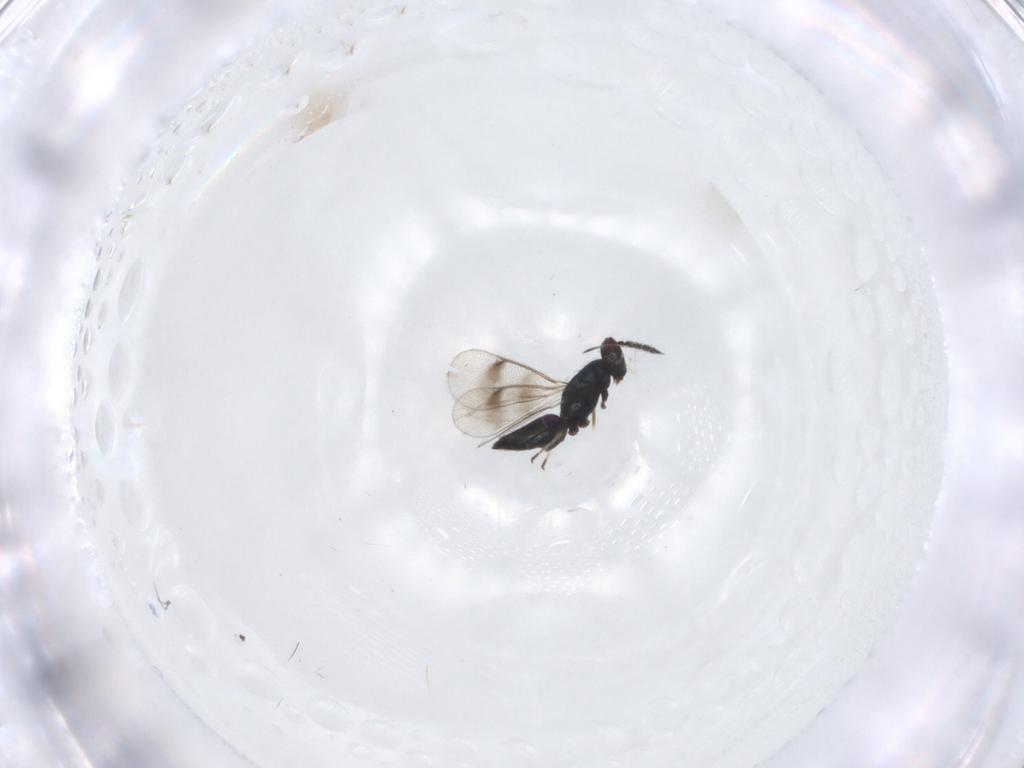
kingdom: Animalia
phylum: Arthropoda
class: Insecta
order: Hymenoptera
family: Eulophidae
